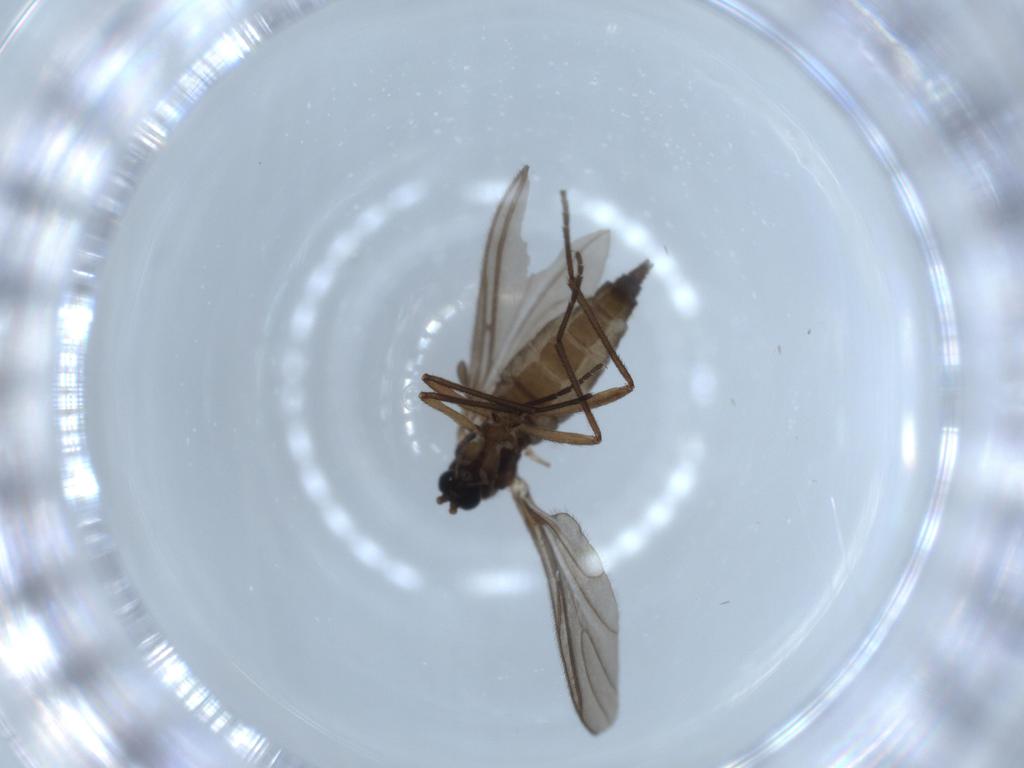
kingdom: Animalia
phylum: Arthropoda
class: Insecta
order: Diptera
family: Sciaridae
